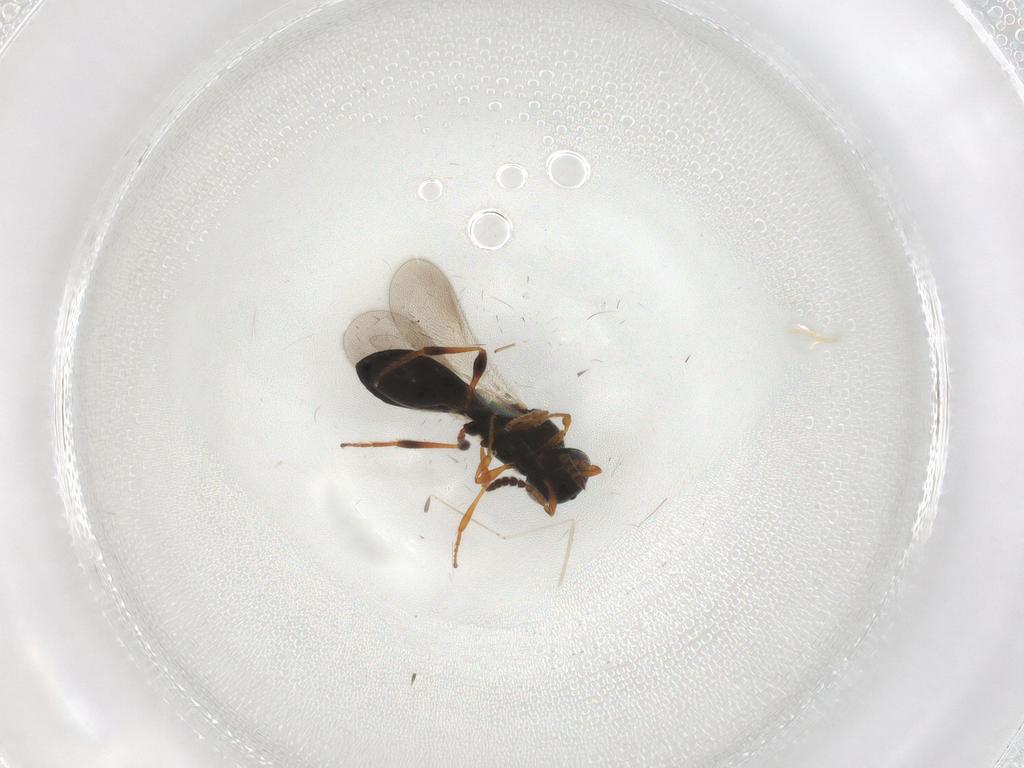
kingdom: Animalia
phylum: Arthropoda
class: Insecta
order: Hymenoptera
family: Platygastridae
